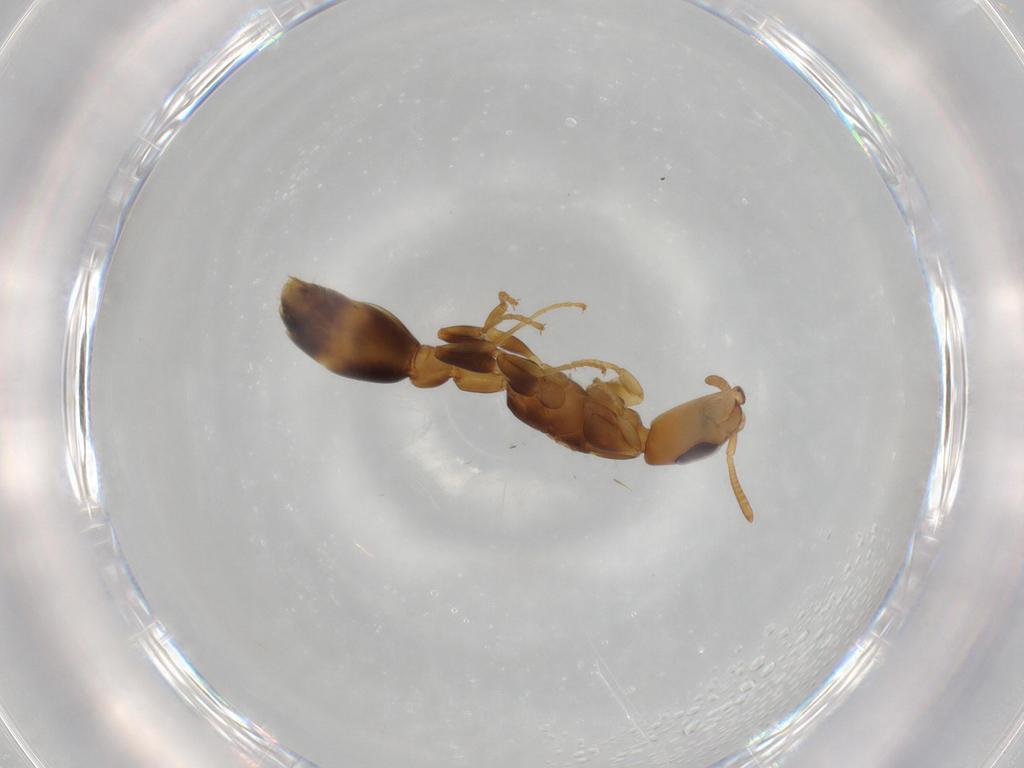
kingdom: Animalia
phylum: Arthropoda
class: Insecta
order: Hymenoptera
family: Formicidae
